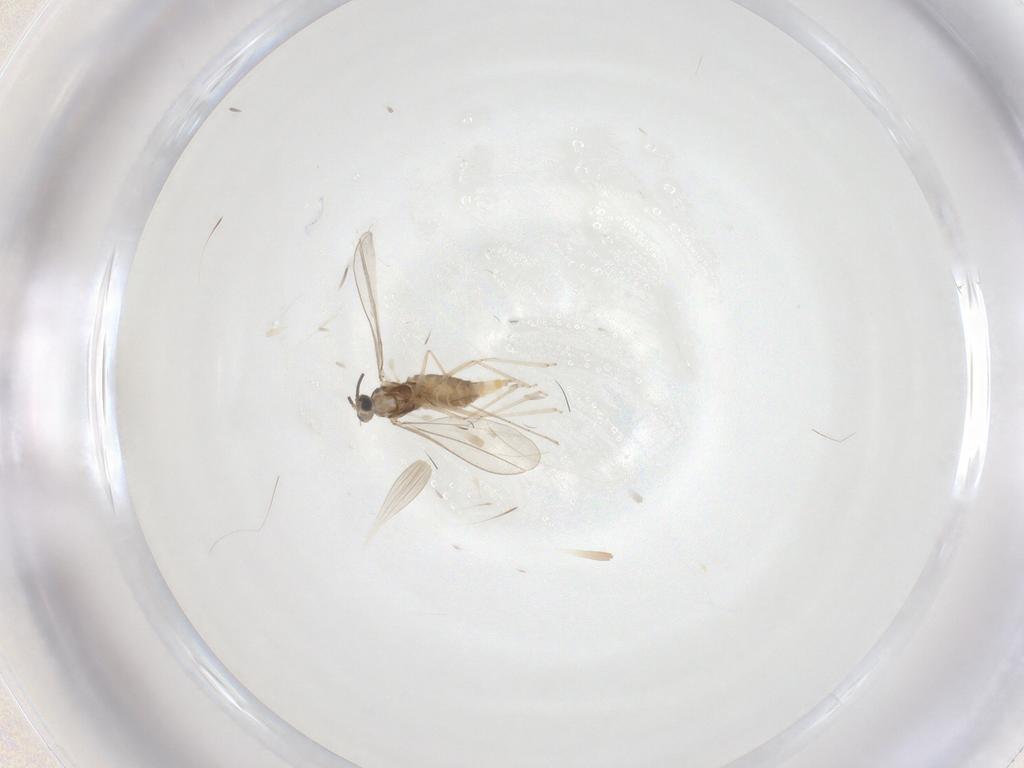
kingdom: Animalia
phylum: Arthropoda
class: Insecta
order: Diptera
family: Cecidomyiidae
